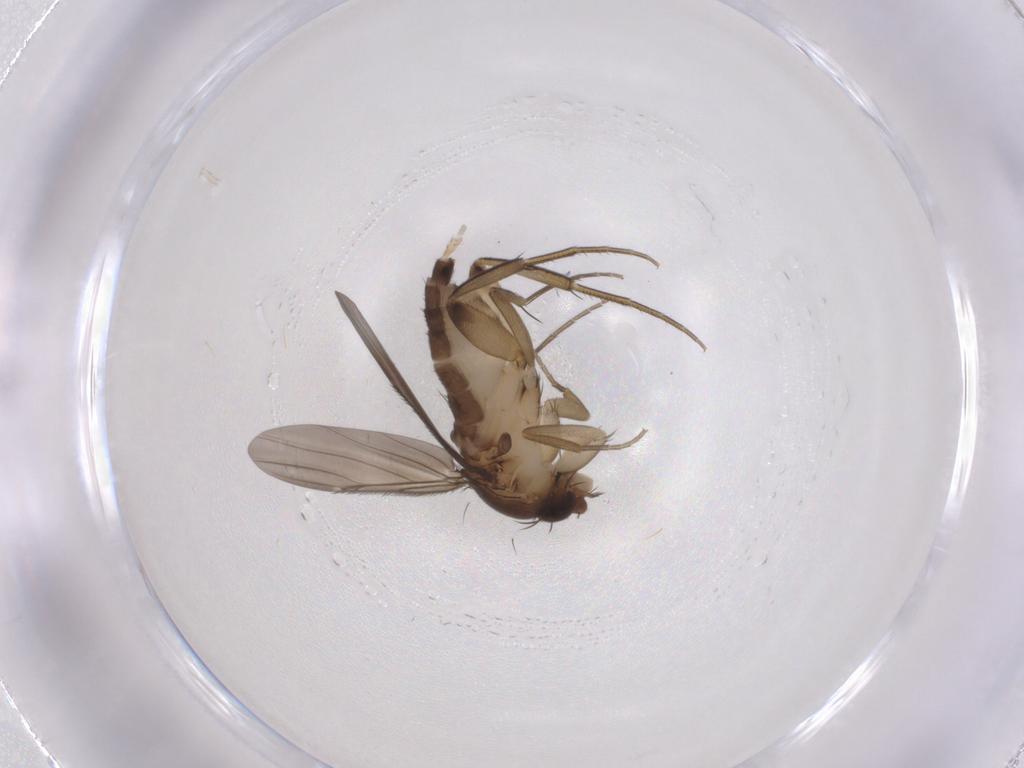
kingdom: Animalia
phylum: Arthropoda
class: Insecta
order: Diptera
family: Phoridae
